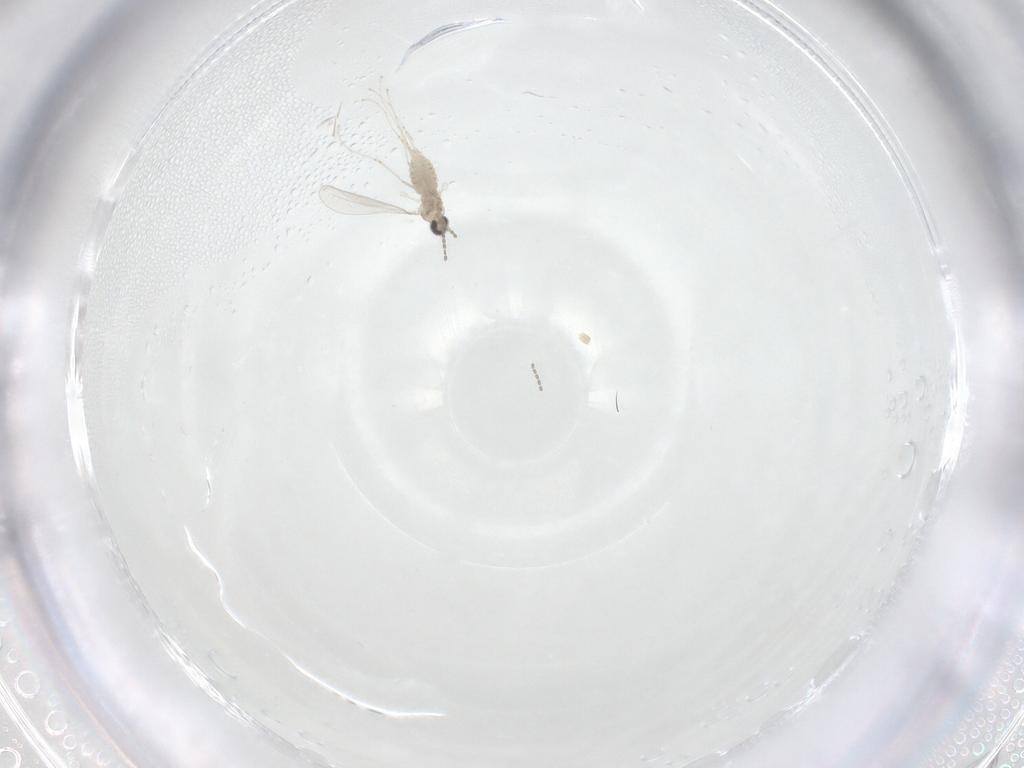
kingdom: Animalia
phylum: Arthropoda
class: Insecta
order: Diptera
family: Cecidomyiidae
